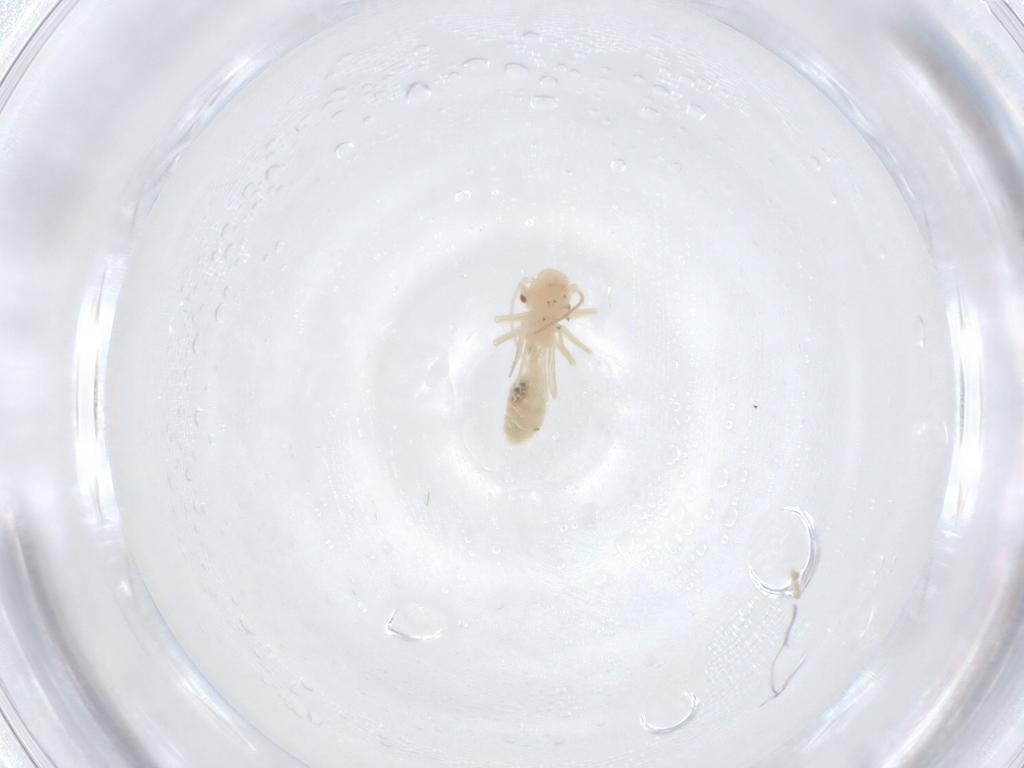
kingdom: Animalia
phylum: Arthropoda
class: Insecta
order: Psocodea
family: Caeciliusidae
